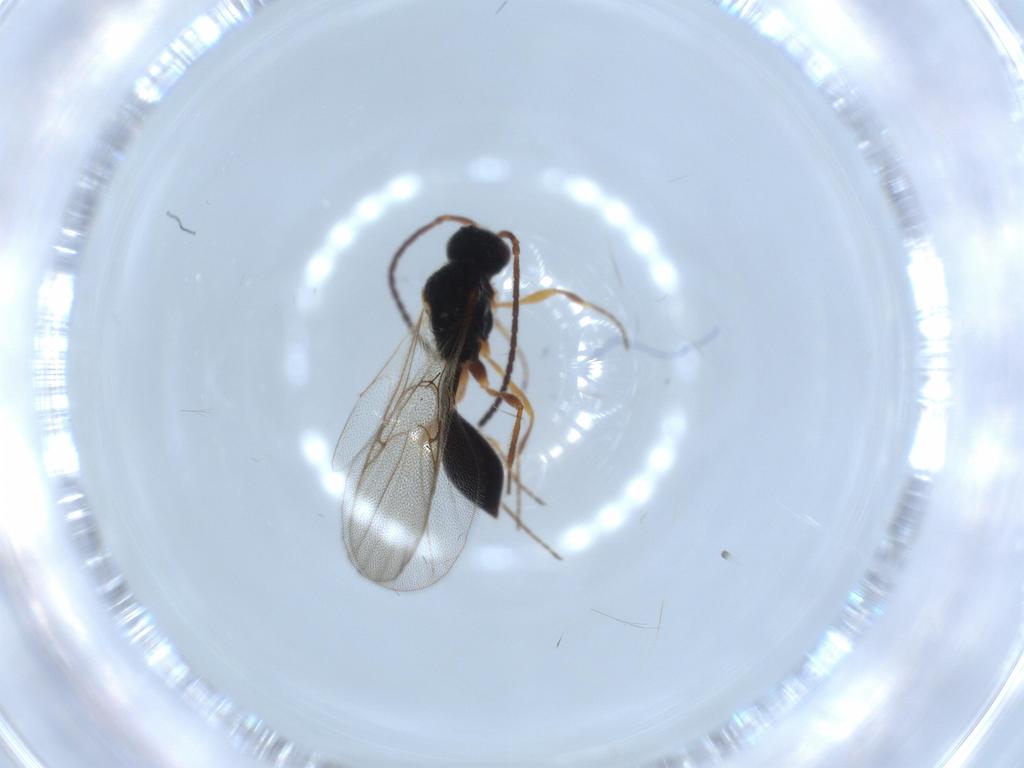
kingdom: Animalia
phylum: Arthropoda
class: Insecta
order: Hymenoptera
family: Diapriidae
